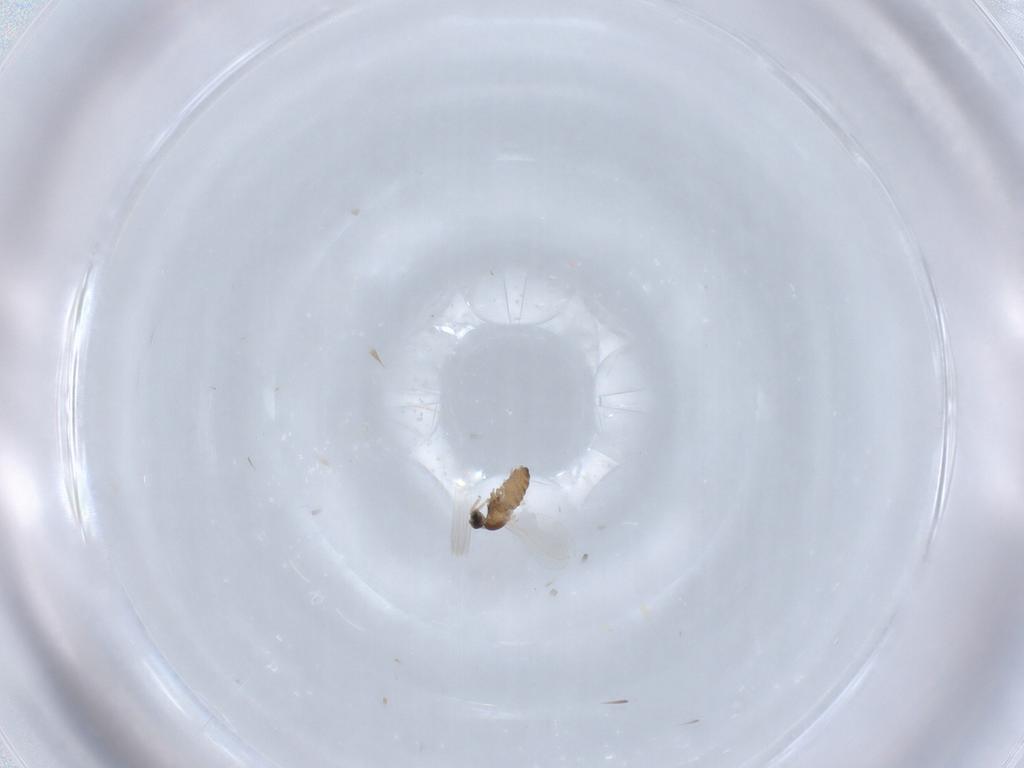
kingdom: Animalia
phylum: Arthropoda
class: Insecta
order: Diptera
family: Cecidomyiidae
